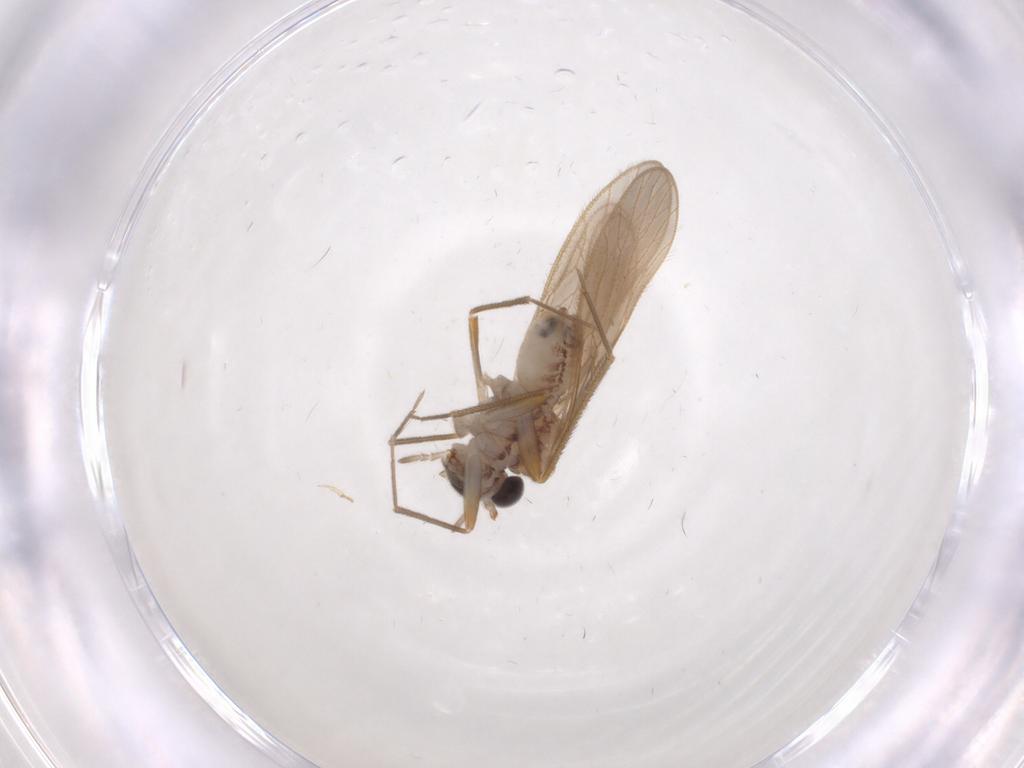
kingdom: Animalia
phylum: Arthropoda
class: Insecta
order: Psocodea
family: Mesopsocidae
